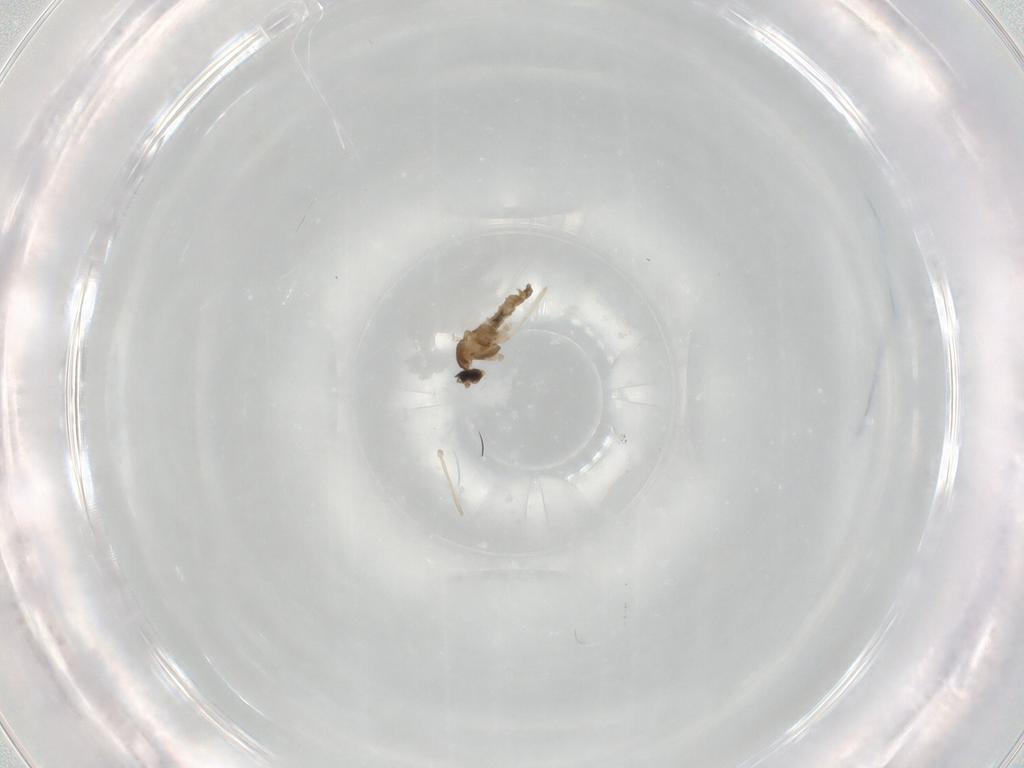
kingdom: Animalia
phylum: Arthropoda
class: Insecta
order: Diptera
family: Cecidomyiidae
